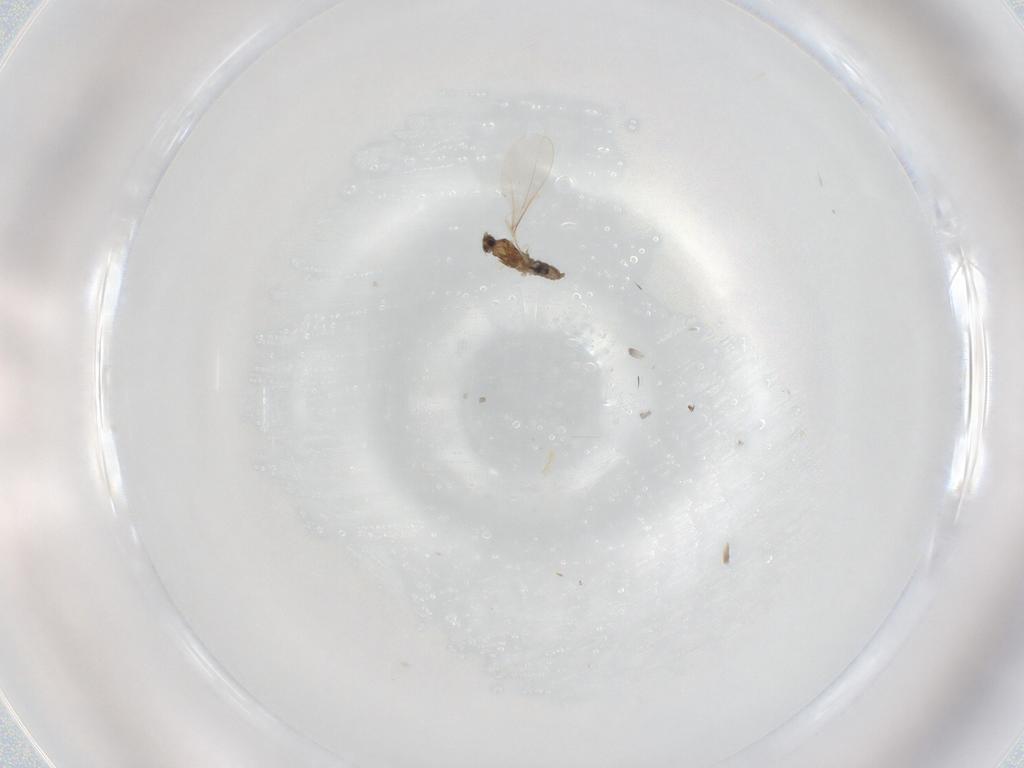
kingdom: Animalia
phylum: Arthropoda
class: Insecta
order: Diptera
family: Cecidomyiidae
